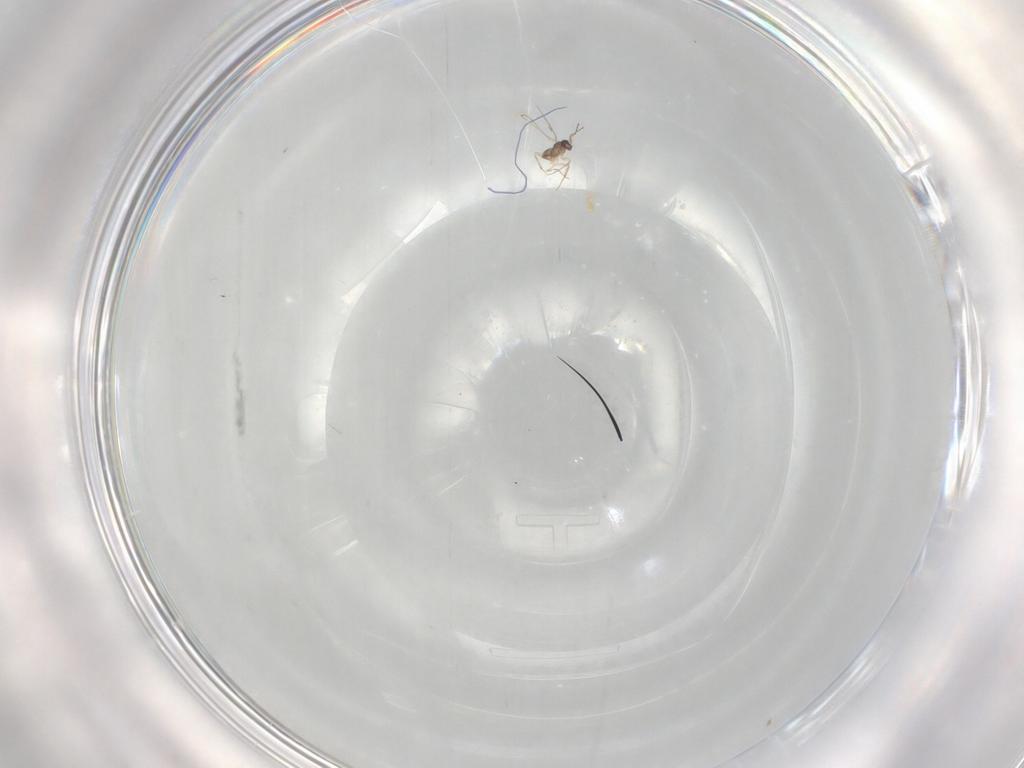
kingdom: Animalia
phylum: Arthropoda
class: Insecta
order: Hymenoptera
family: Mymaridae
